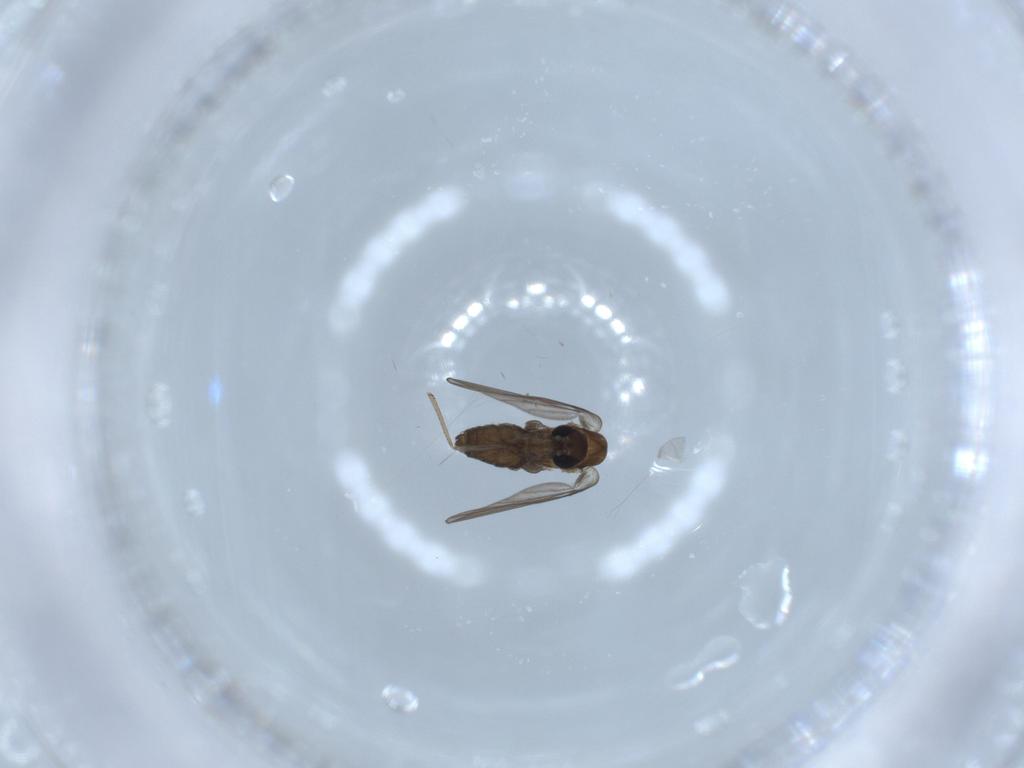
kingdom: Animalia
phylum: Arthropoda
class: Insecta
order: Diptera
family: Psychodidae
